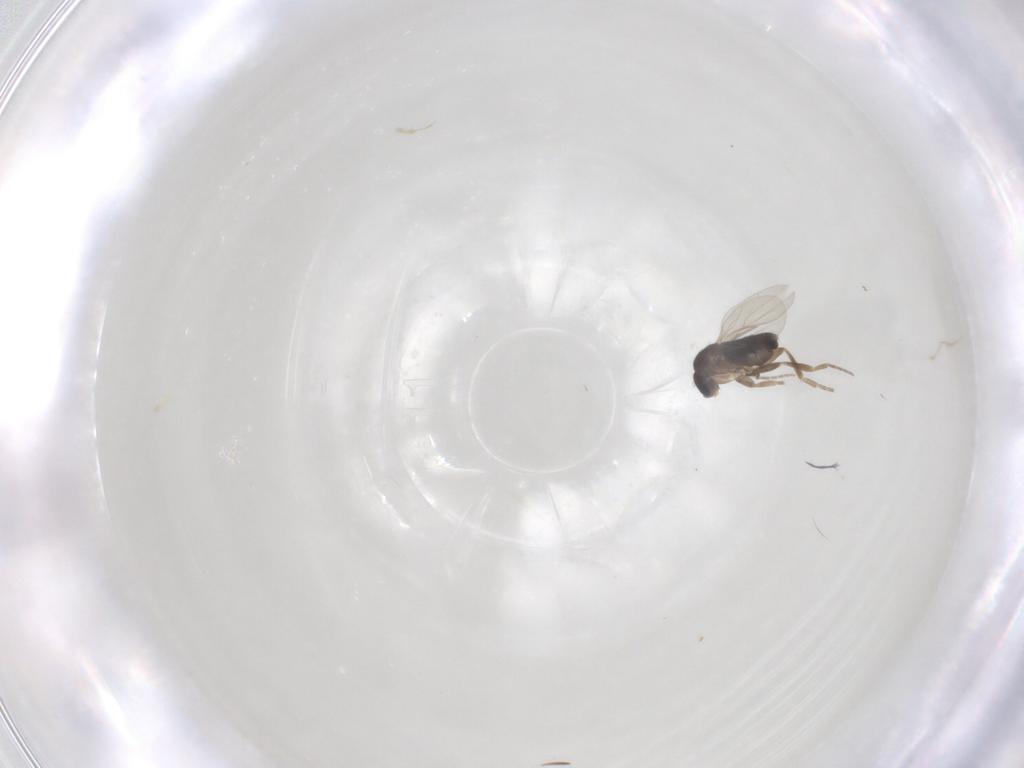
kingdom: Animalia
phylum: Arthropoda
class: Insecta
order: Diptera
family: Phoridae
